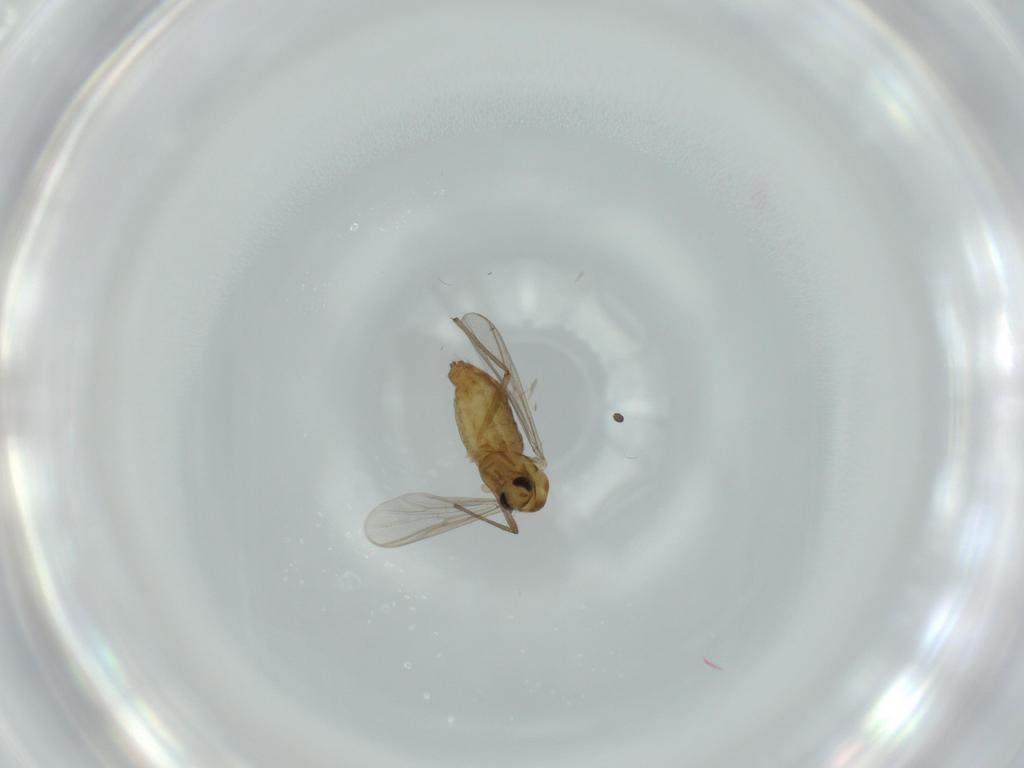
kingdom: Animalia
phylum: Arthropoda
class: Insecta
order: Diptera
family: Chironomidae
